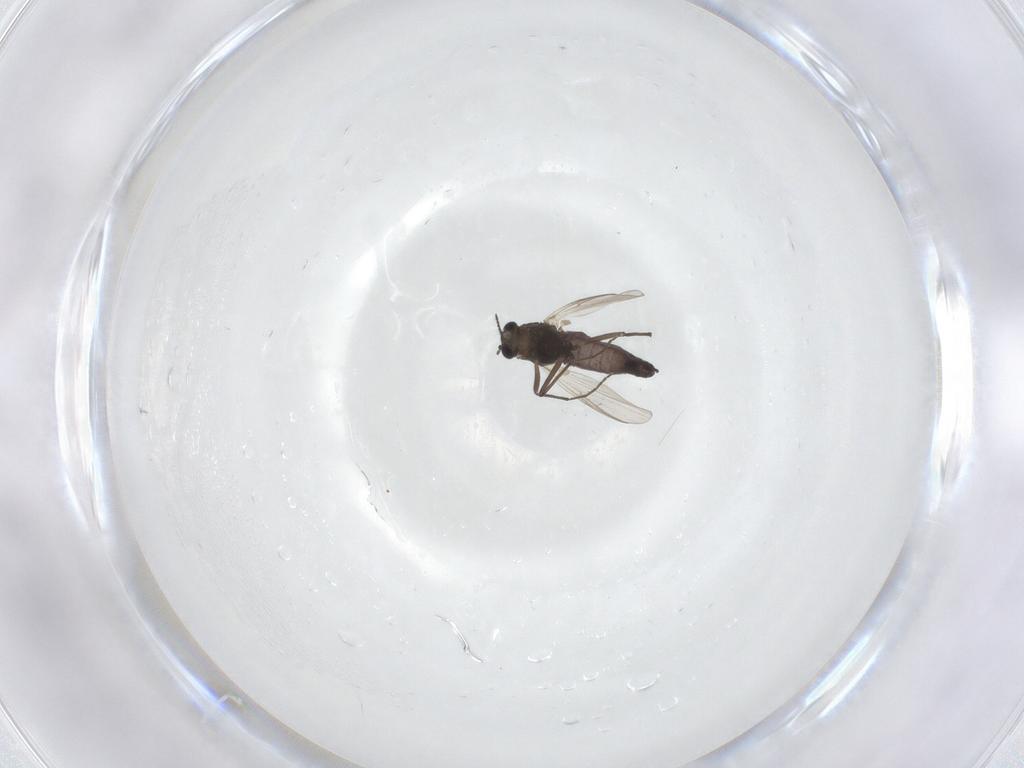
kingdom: Animalia
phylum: Arthropoda
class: Insecta
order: Diptera
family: Chironomidae
